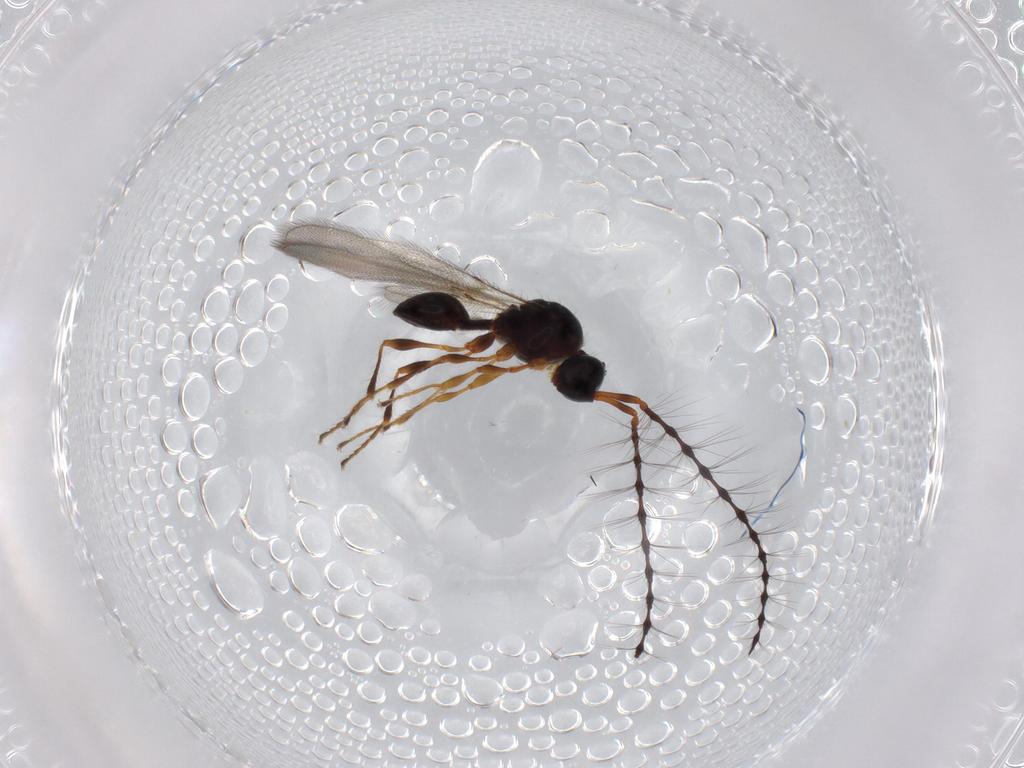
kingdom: Animalia
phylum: Arthropoda
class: Insecta
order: Hymenoptera
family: Diapriidae
